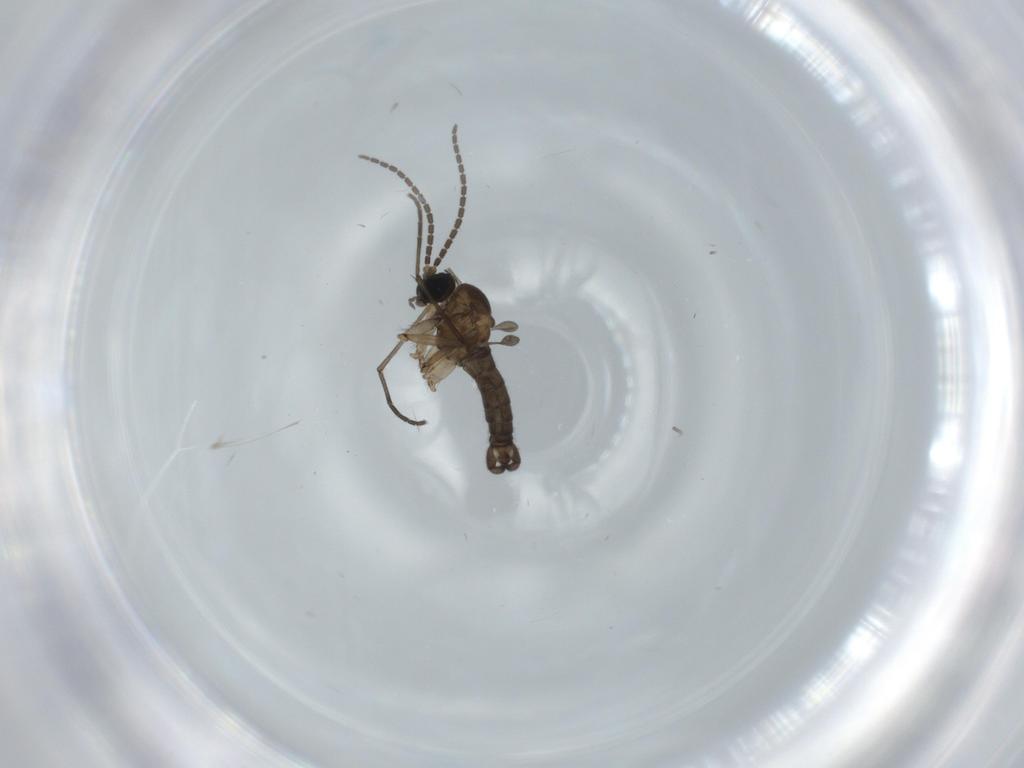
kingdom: Animalia
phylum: Arthropoda
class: Insecta
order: Diptera
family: Sciaridae
